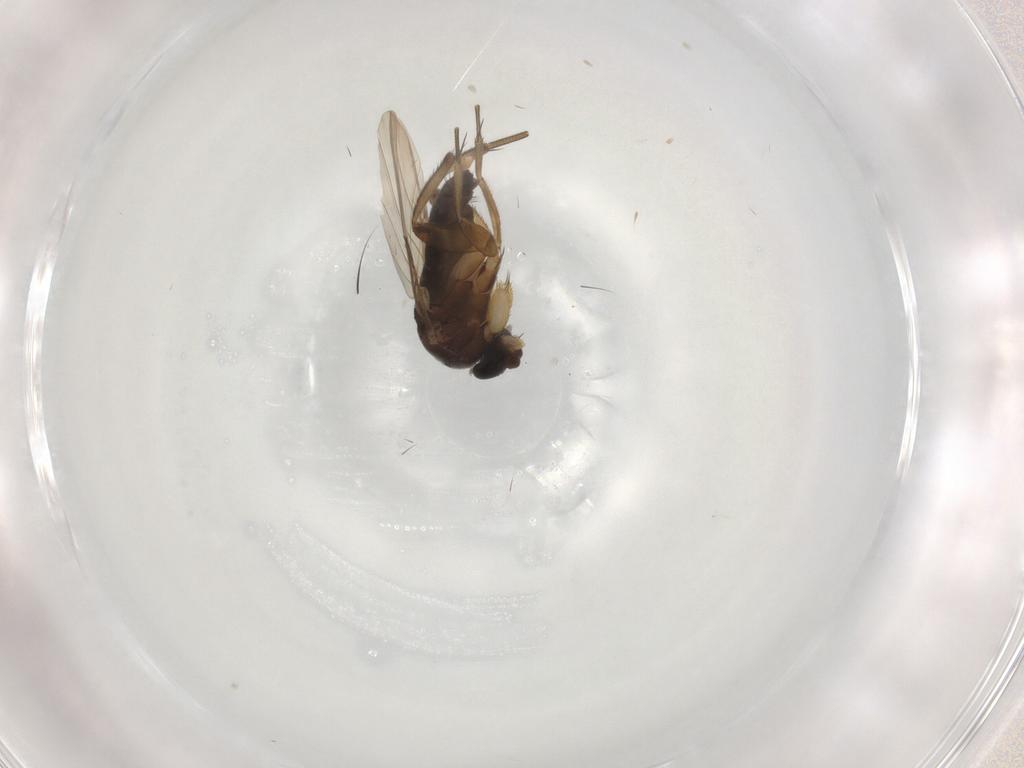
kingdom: Animalia
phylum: Arthropoda
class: Insecta
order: Diptera
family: Phoridae
